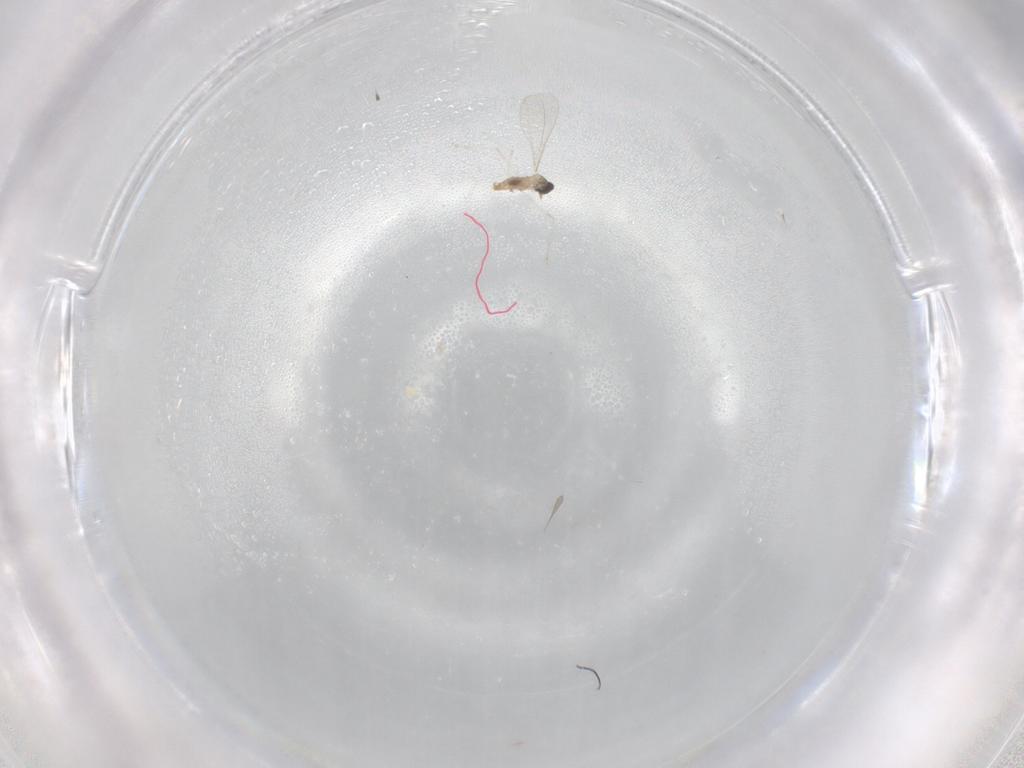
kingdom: Animalia
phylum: Arthropoda
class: Insecta
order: Diptera
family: Cecidomyiidae
